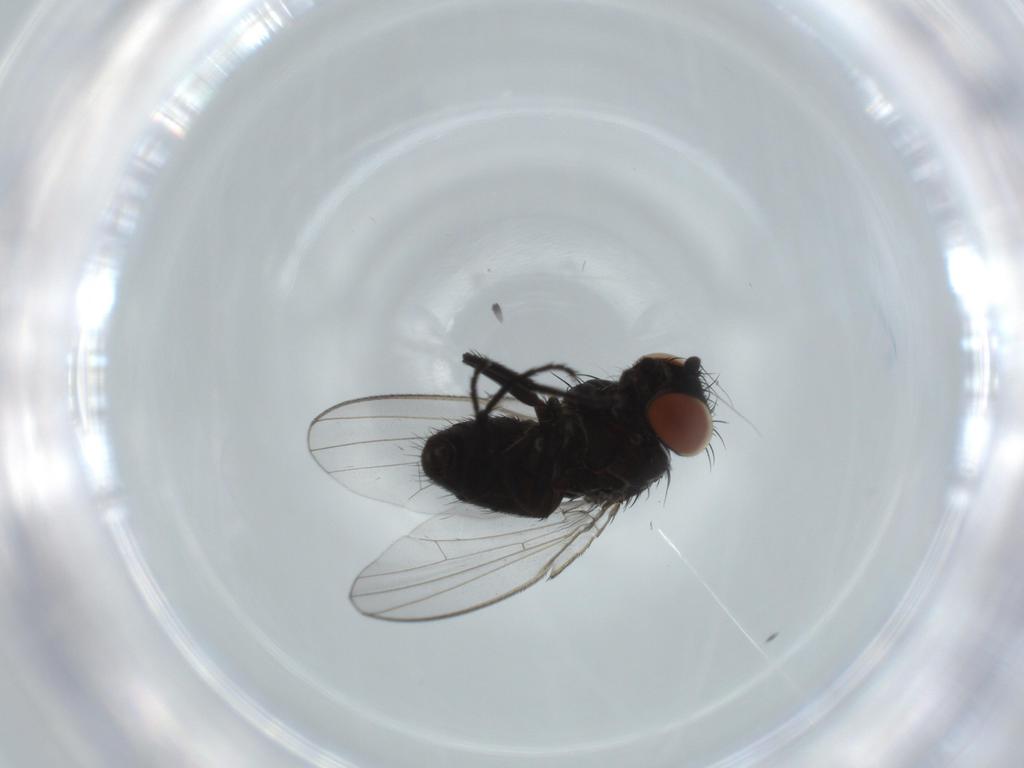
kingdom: Animalia
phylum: Arthropoda
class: Insecta
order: Diptera
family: Milichiidae
